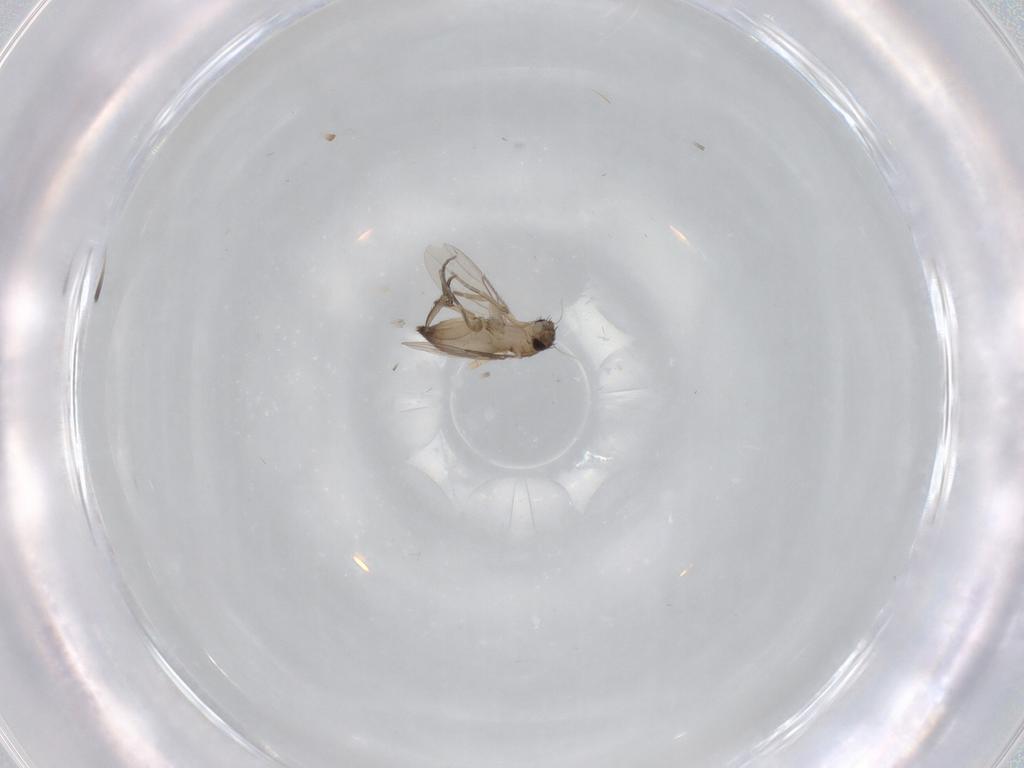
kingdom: Animalia
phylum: Arthropoda
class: Insecta
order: Diptera
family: Phoridae
